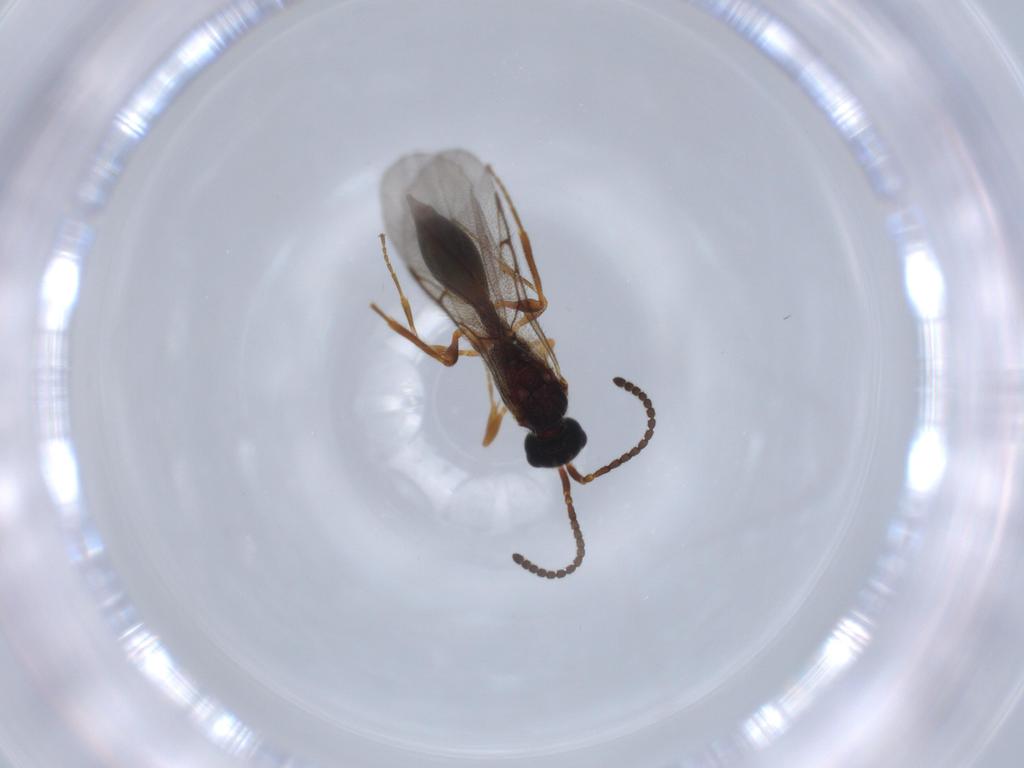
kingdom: Animalia
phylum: Arthropoda
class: Insecta
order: Hymenoptera
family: Diapriidae
